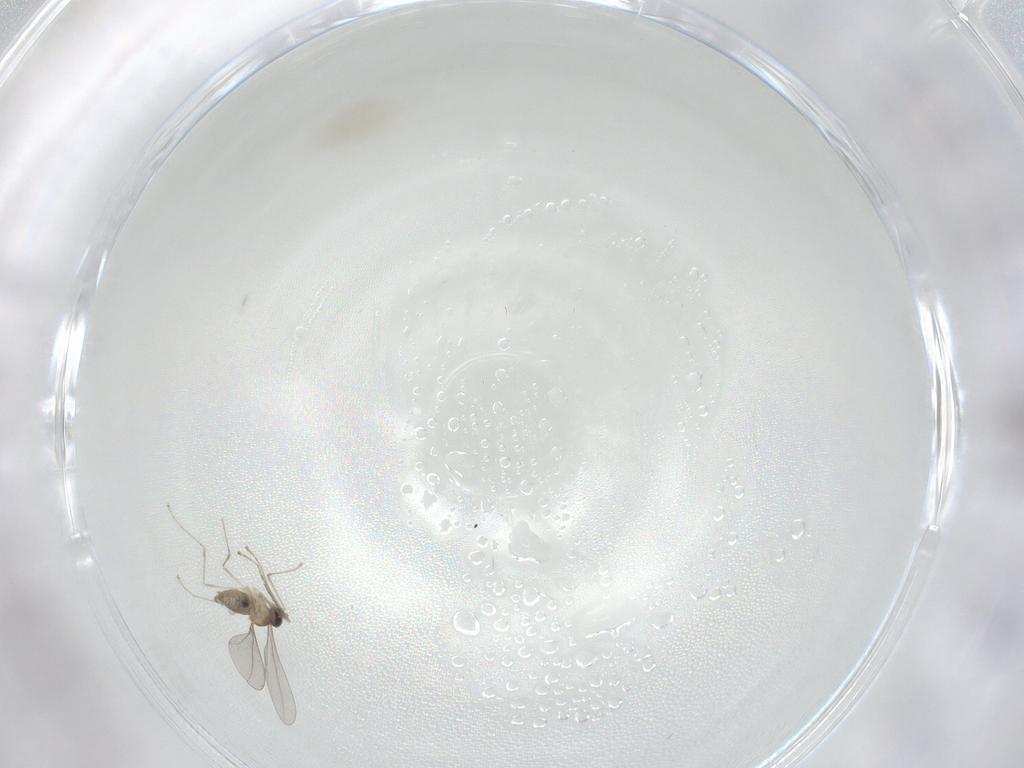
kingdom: Animalia
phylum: Arthropoda
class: Insecta
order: Diptera
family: Cecidomyiidae
